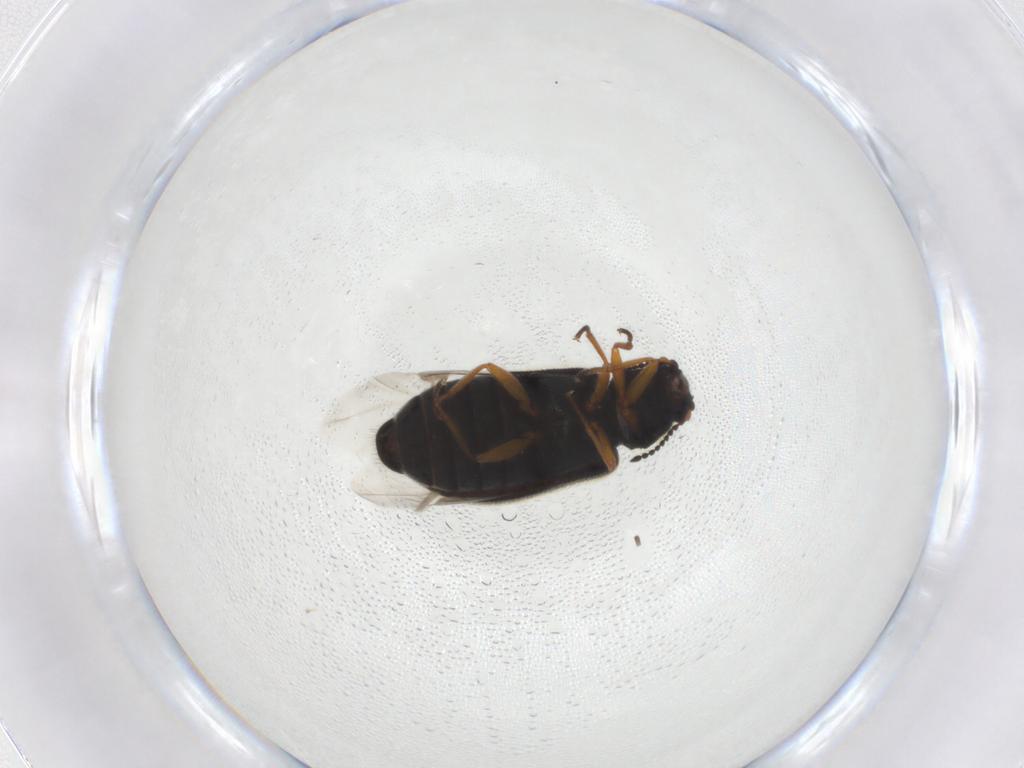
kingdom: Animalia
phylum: Arthropoda
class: Insecta
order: Coleoptera
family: Melyridae
